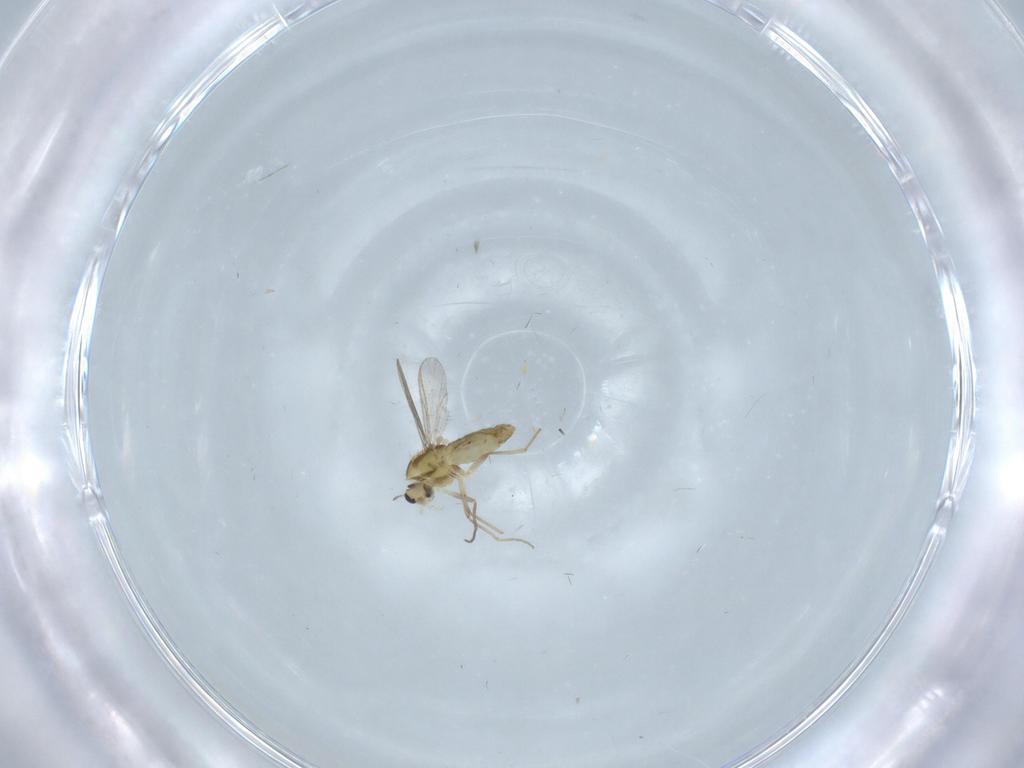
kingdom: Animalia
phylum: Arthropoda
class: Insecta
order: Diptera
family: Chironomidae
